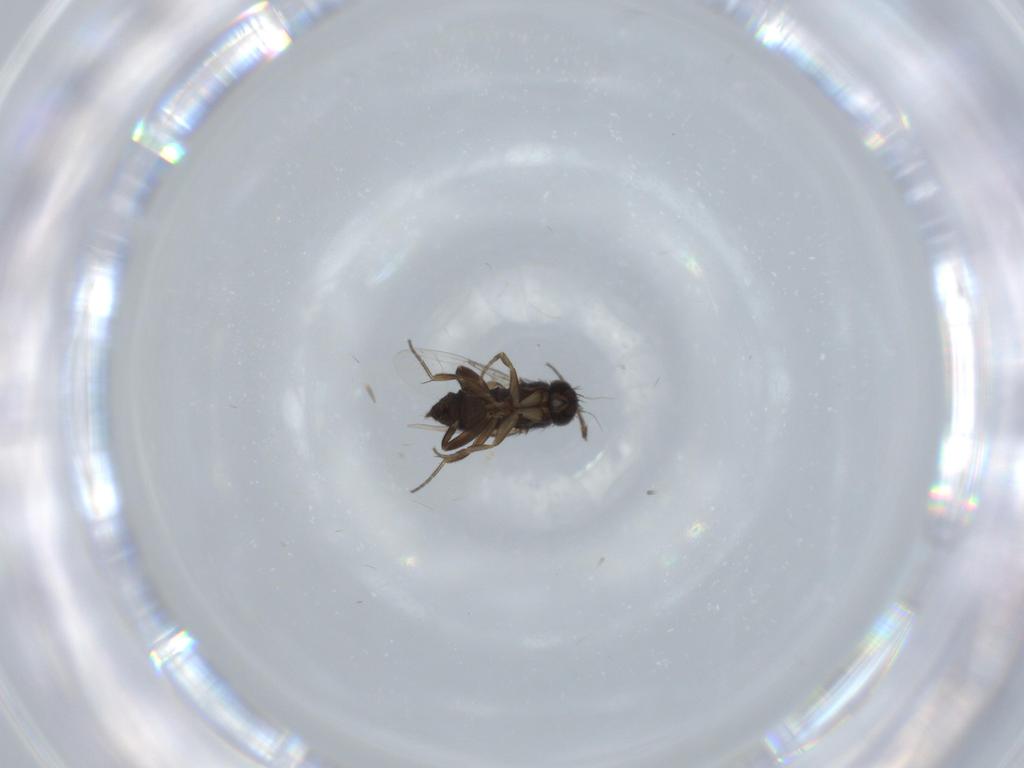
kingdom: Animalia
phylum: Arthropoda
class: Insecta
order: Diptera
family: Phoridae
